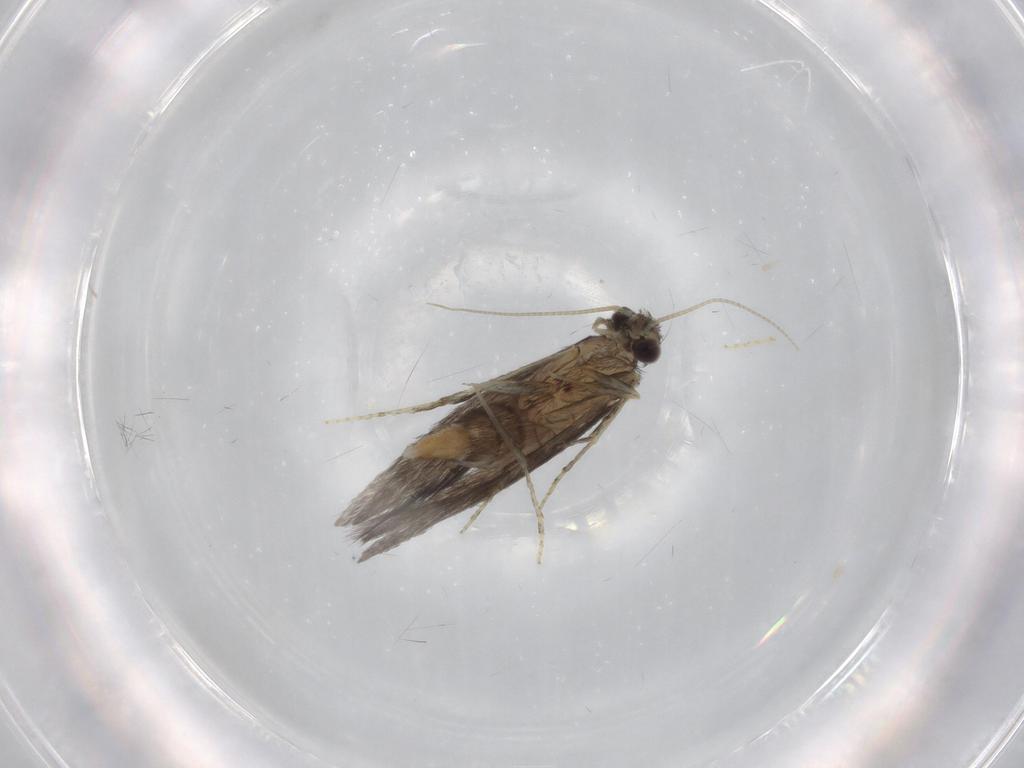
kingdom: Animalia
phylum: Arthropoda
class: Insecta
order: Trichoptera
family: Hydroptilidae
